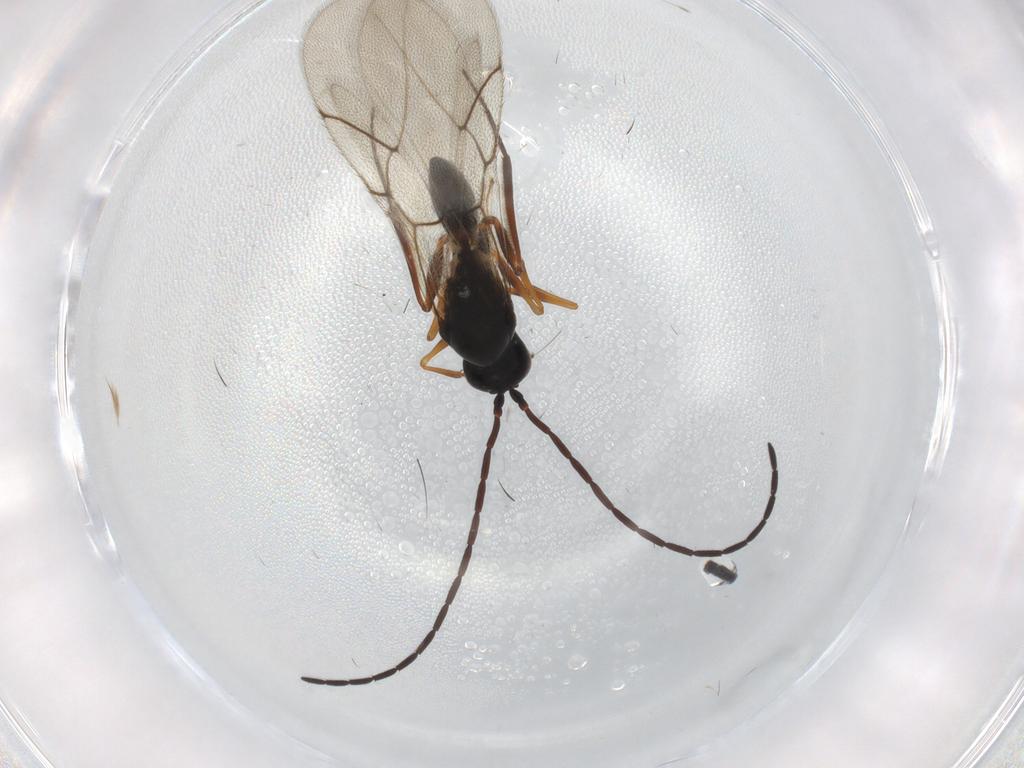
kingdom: Animalia
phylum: Arthropoda
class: Insecta
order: Hymenoptera
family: Figitidae
